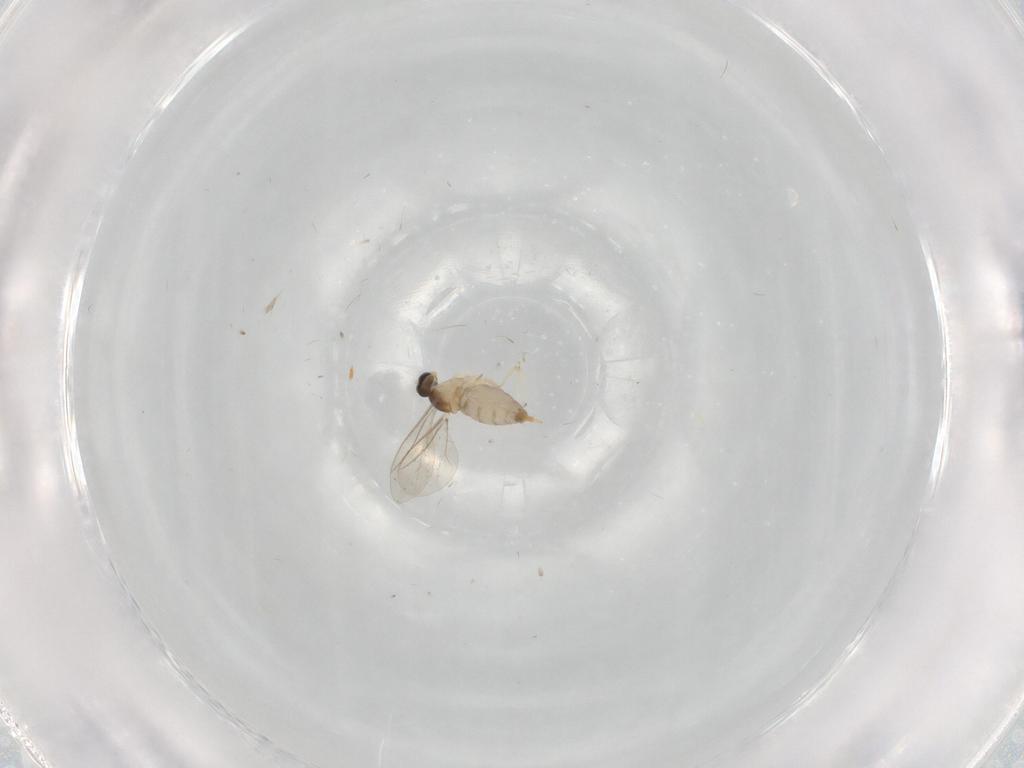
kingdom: Animalia
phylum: Arthropoda
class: Insecta
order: Diptera
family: Cecidomyiidae
